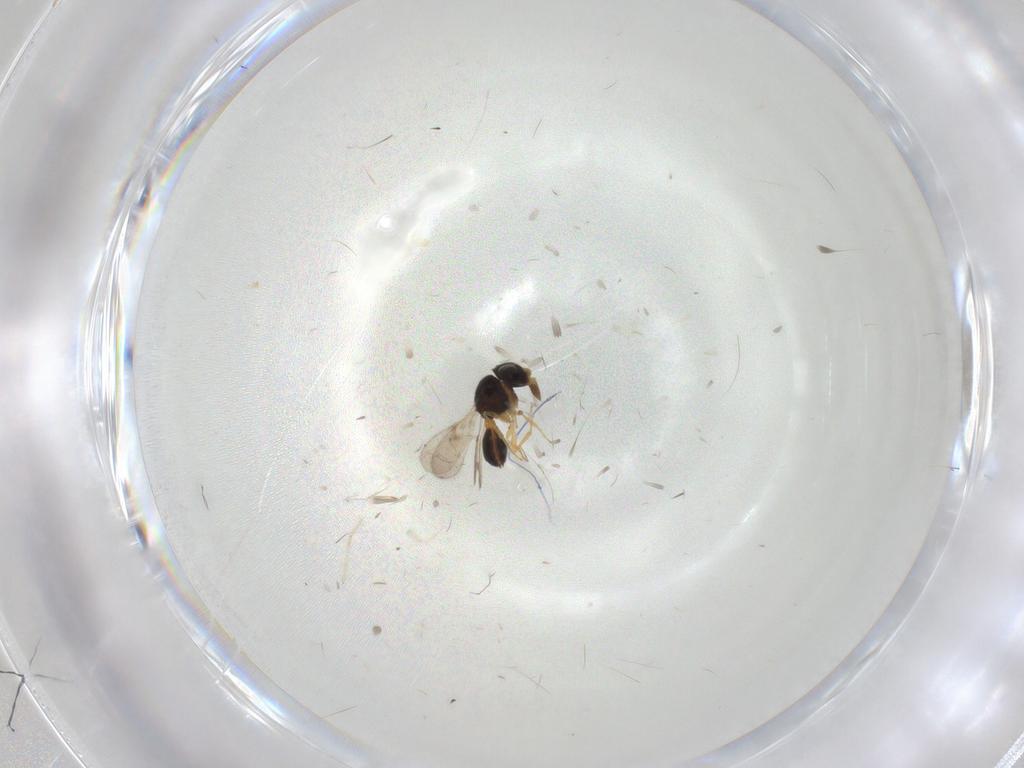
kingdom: Animalia
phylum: Arthropoda
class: Insecta
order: Hymenoptera
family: Scelionidae
